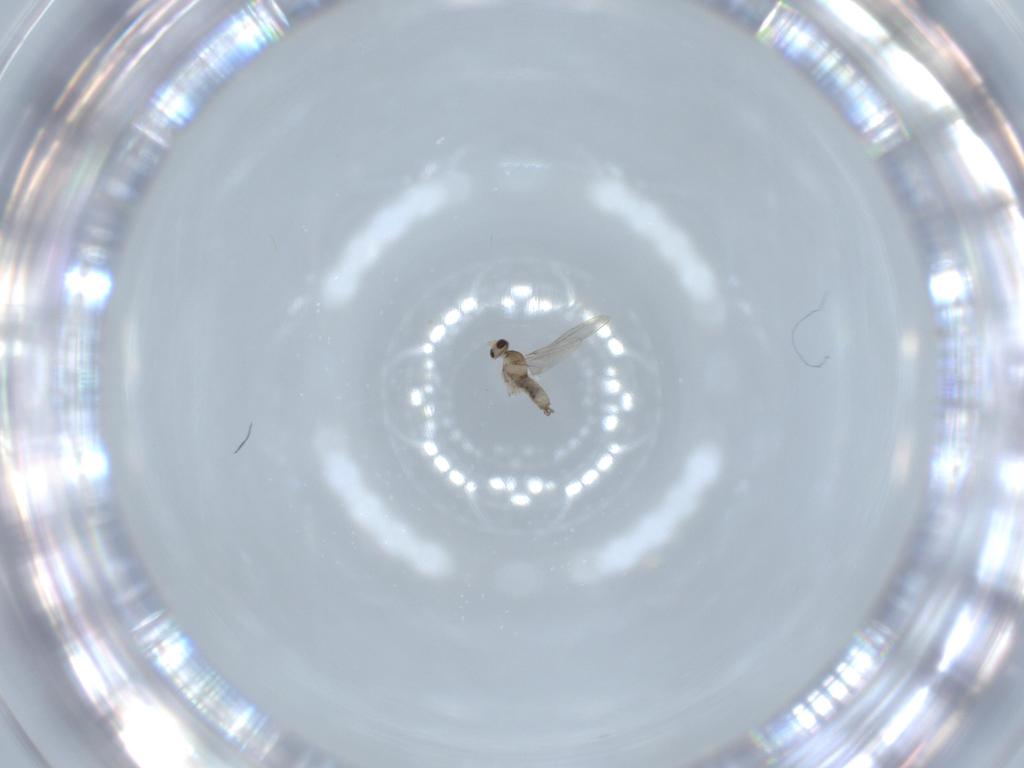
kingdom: Animalia
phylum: Arthropoda
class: Insecta
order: Diptera
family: Cecidomyiidae
